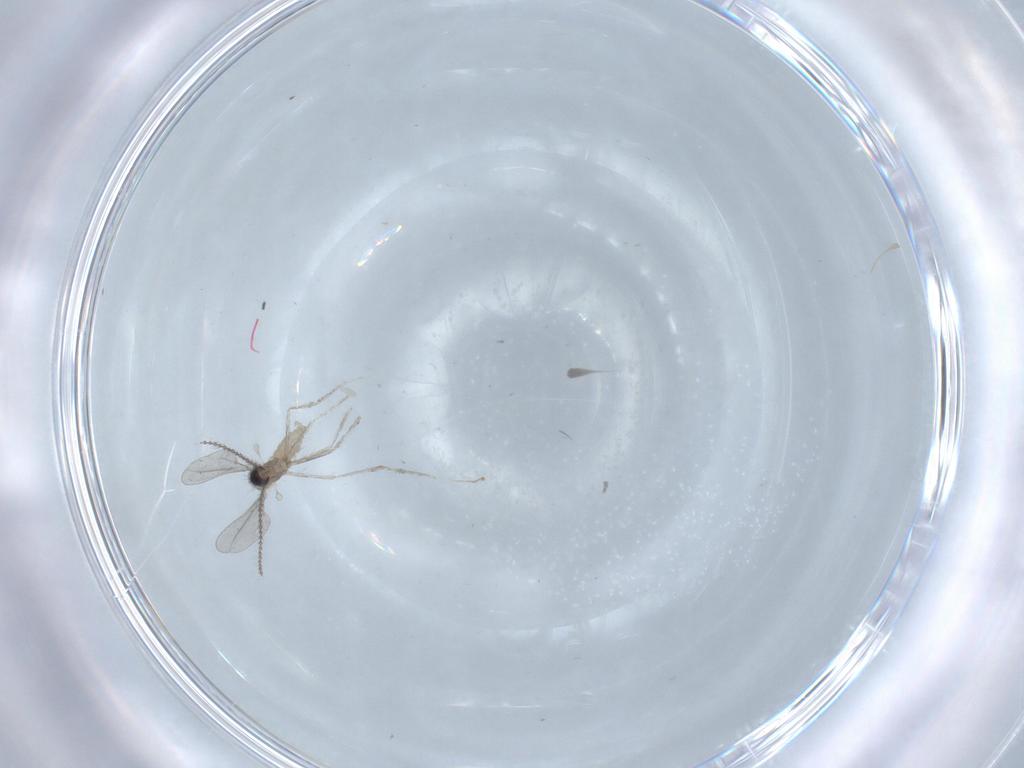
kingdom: Animalia
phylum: Arthropoda
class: Insecta
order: Diptera
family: Cecidomyiidae
